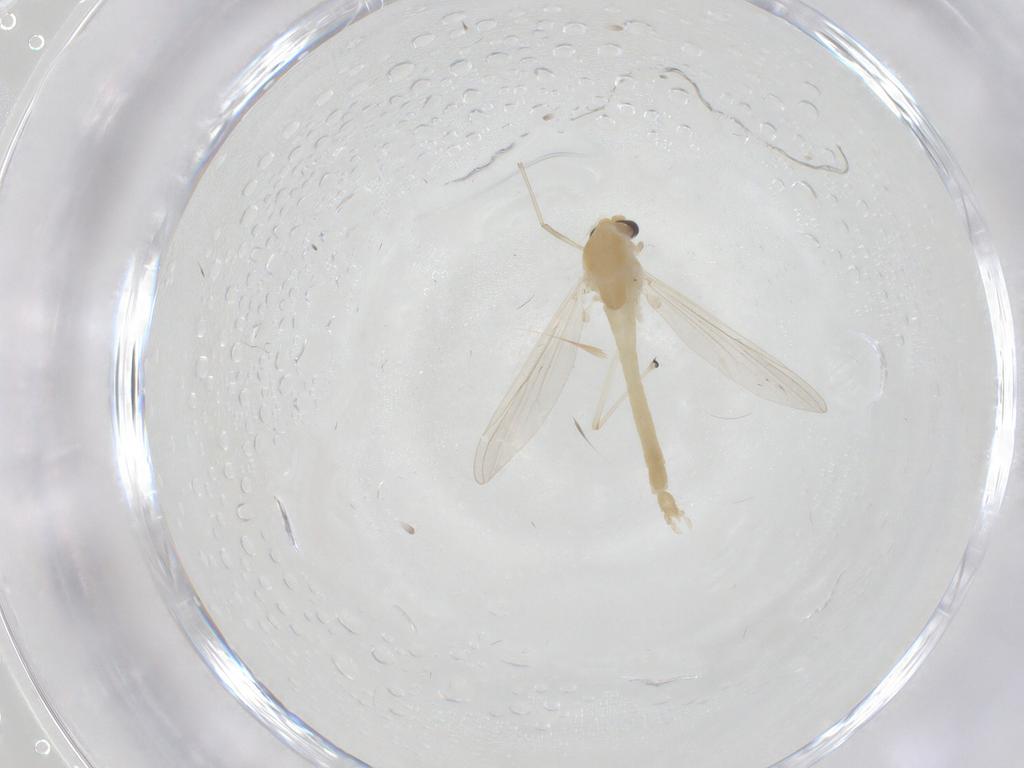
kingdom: Animalia
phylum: Arthropoda
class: Insecta
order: Diptera
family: Chironomidae
